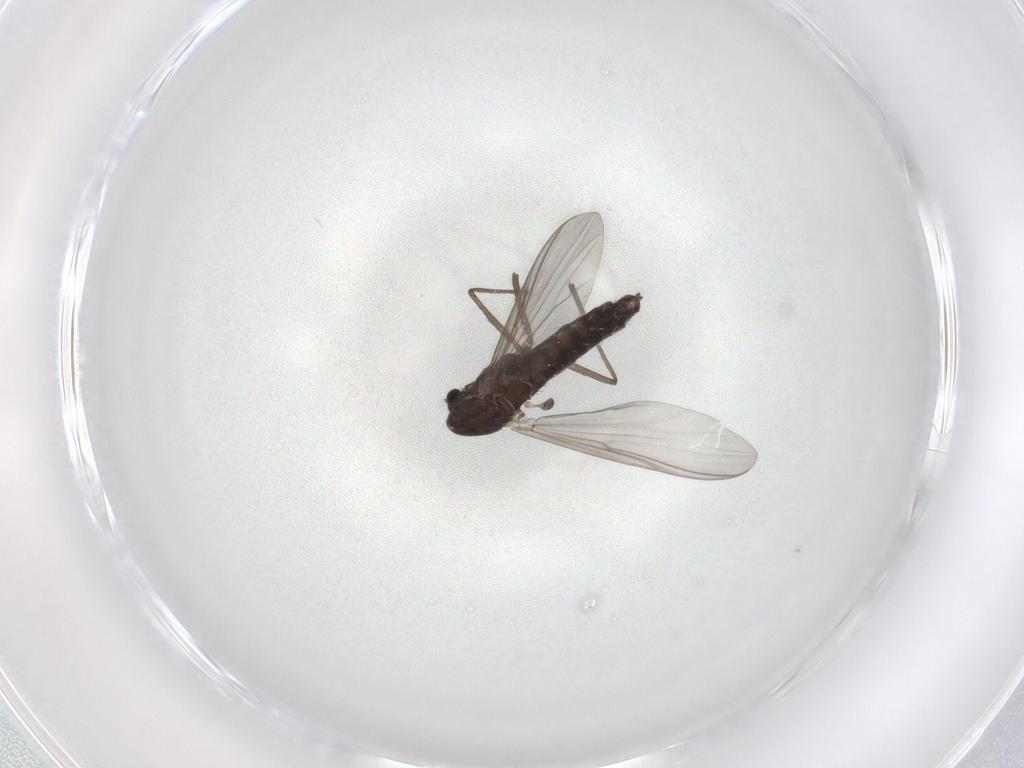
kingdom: Animalia
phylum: Arthropoda
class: Insecta
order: Diptera
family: Chironomidae
